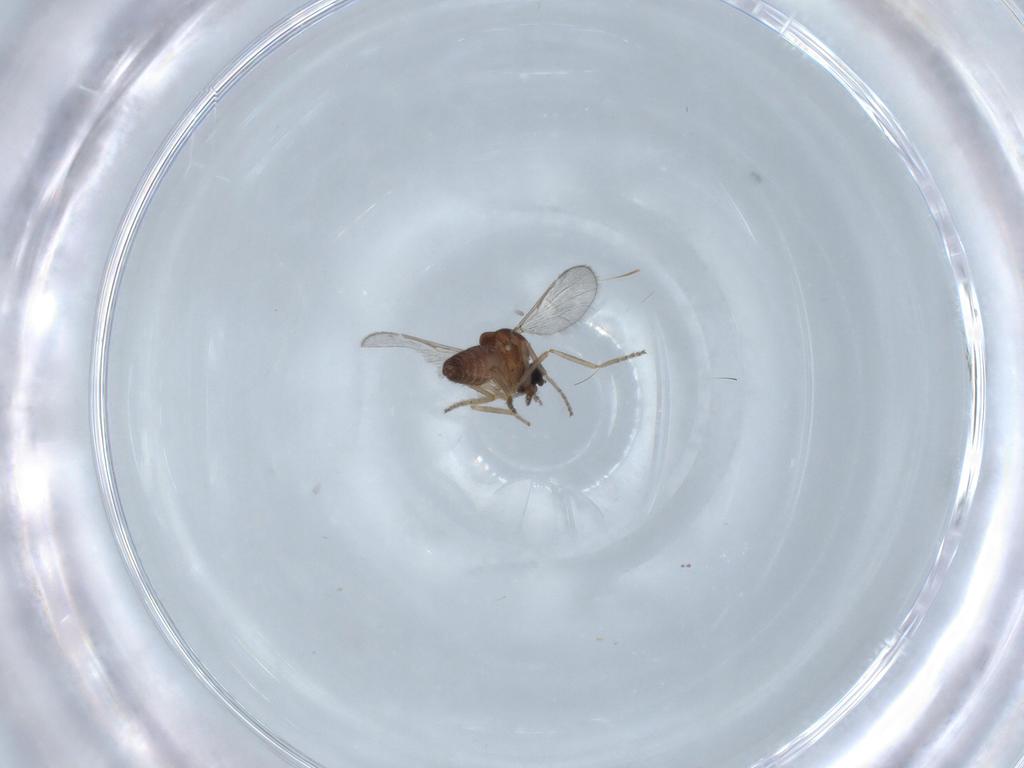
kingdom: Animalia
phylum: Arthropoda
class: Insecta
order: Diptera
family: Ceratopogonidae
